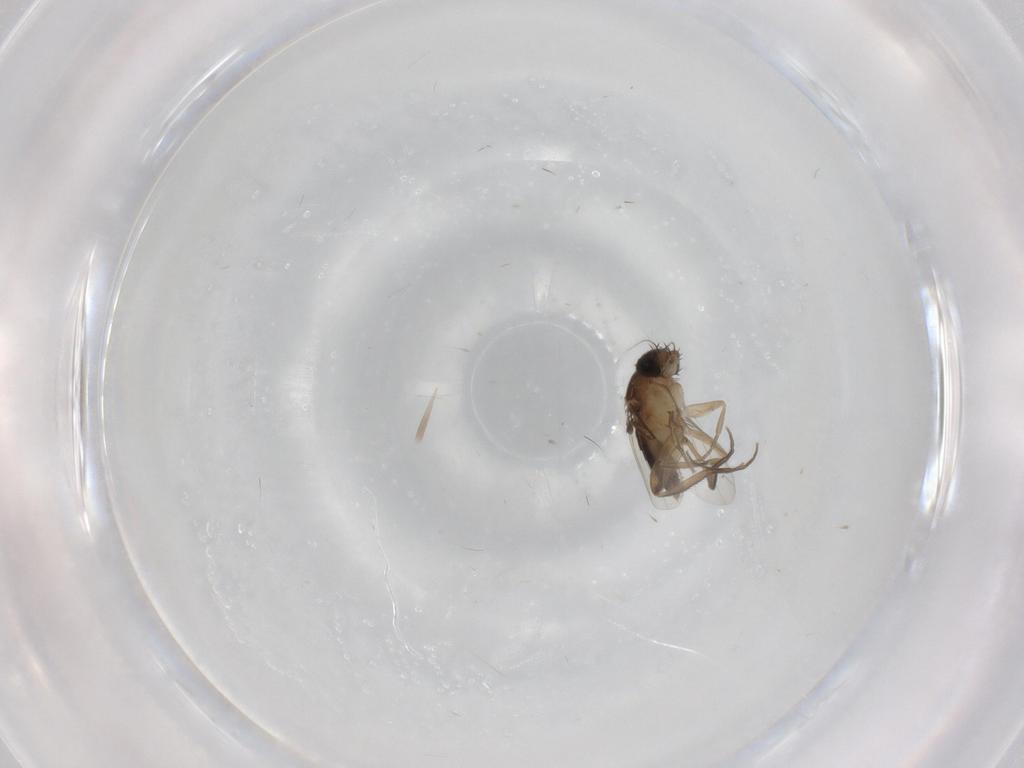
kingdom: Animalia
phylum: Arthropoda
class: Insecta
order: Diptera
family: Phoridae
